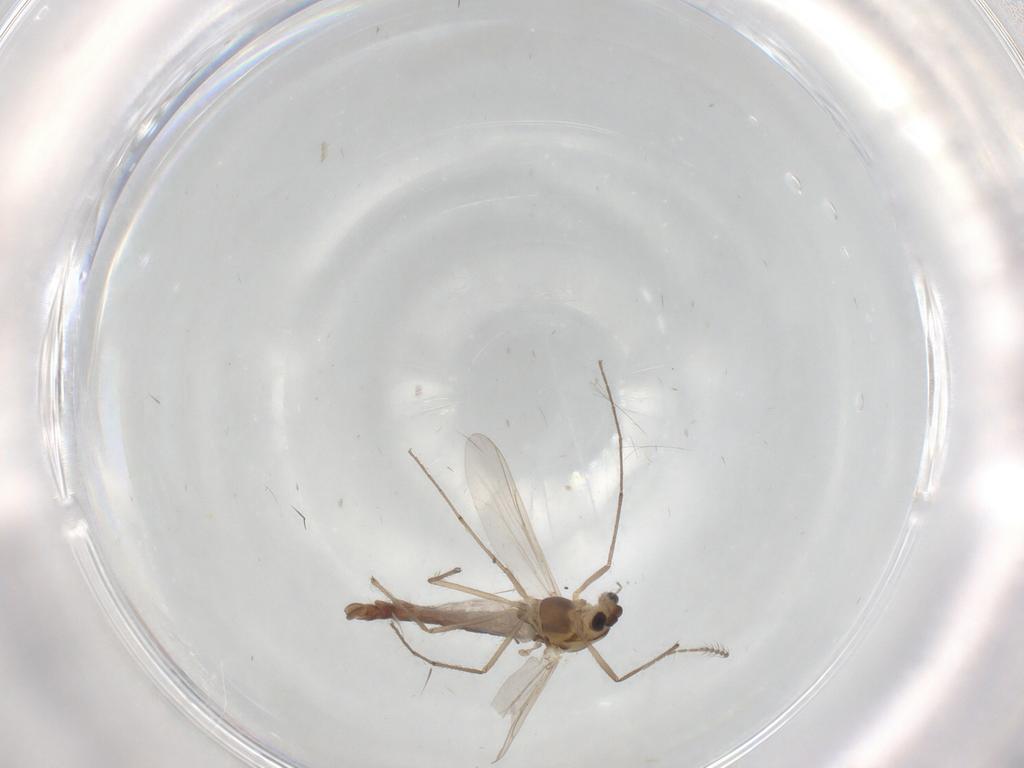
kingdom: Animalia
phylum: Arthropoda
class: Insecta
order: Diptera
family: Chironomidae
